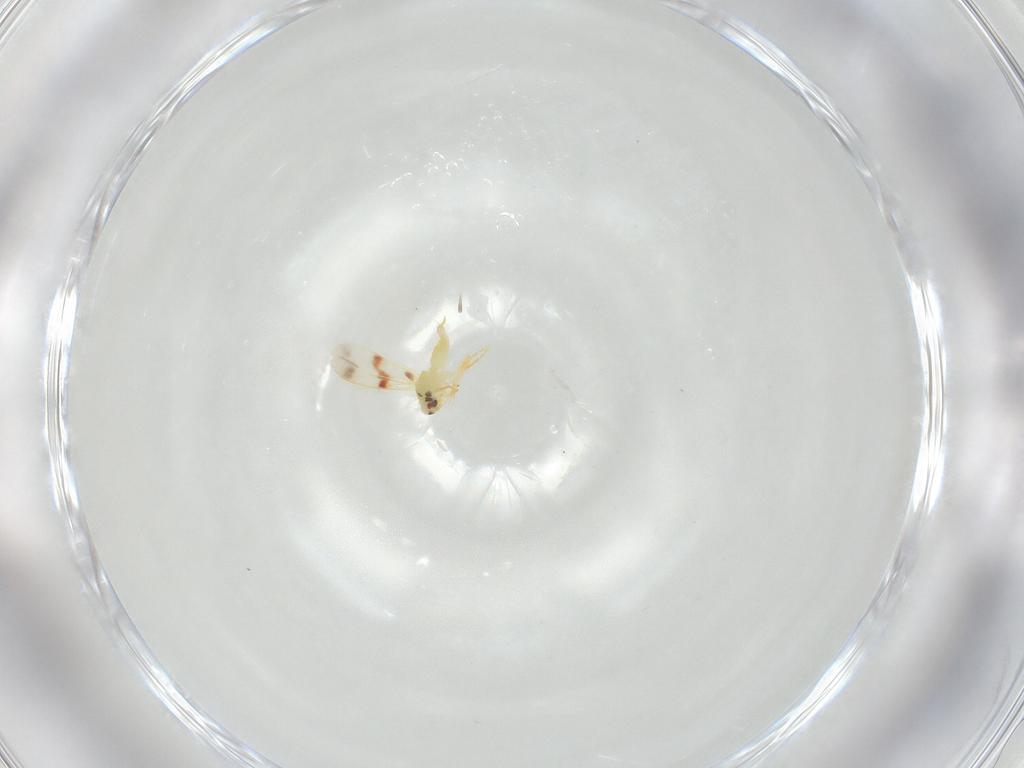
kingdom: Animalia
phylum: Arthropoda
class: Insecta
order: Hemiptera
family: Aleyrodidae
